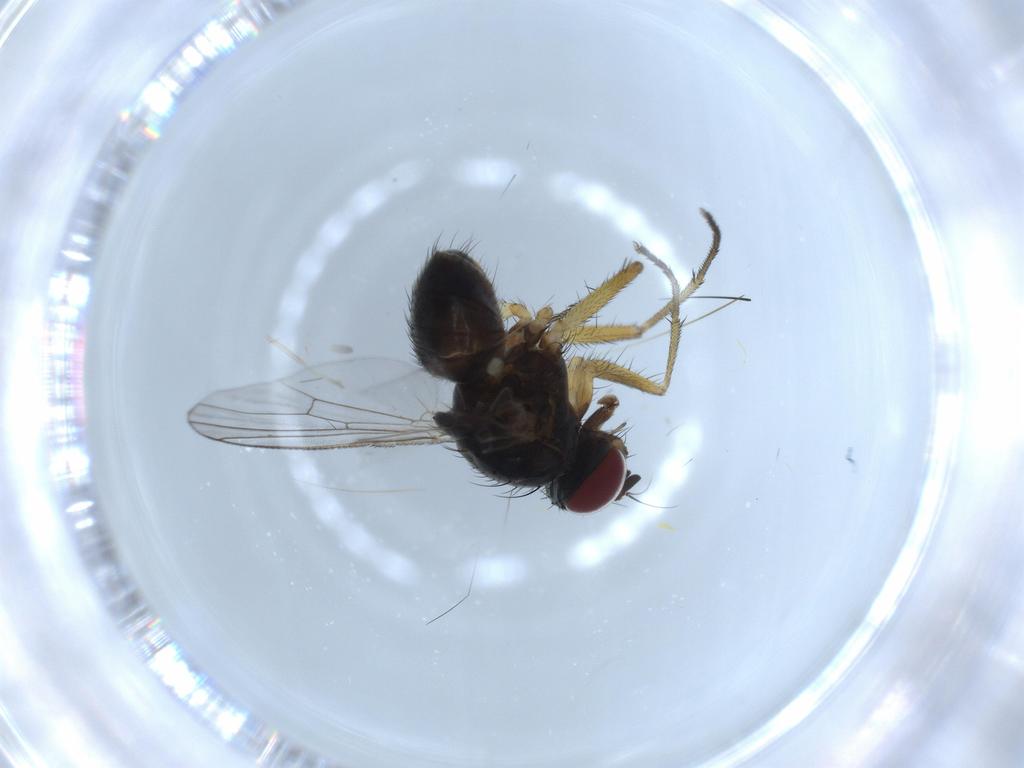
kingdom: Animalia
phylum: Arthropoda
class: Insecta
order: Diptera
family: Muscidae
